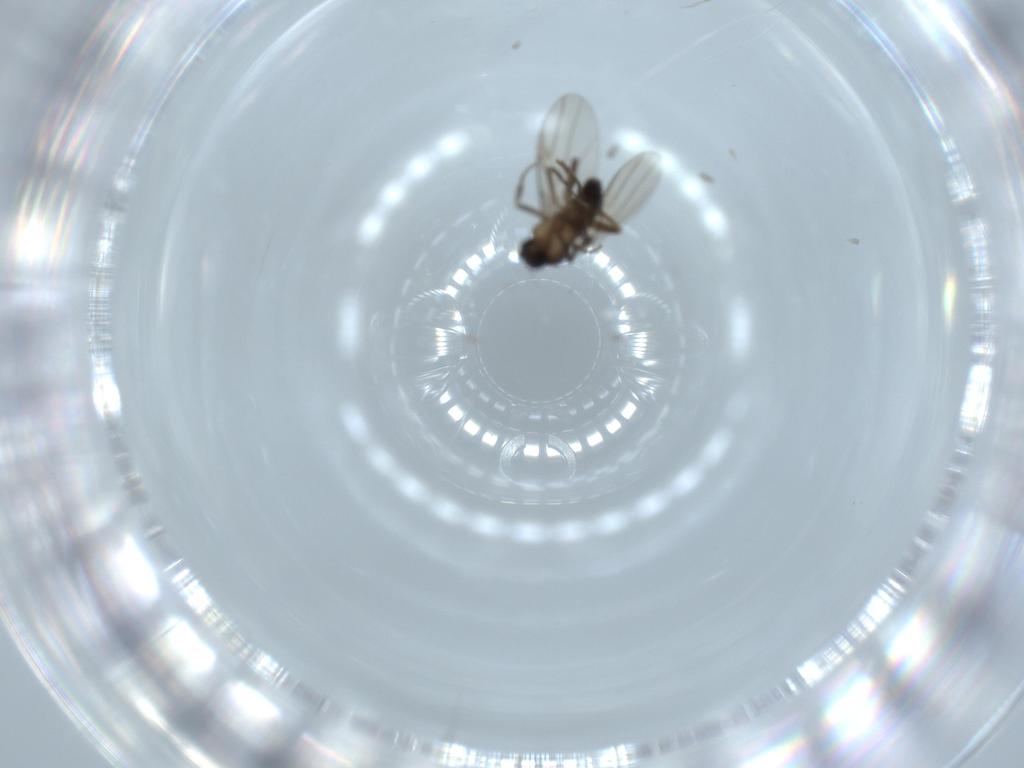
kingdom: Animalia
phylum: Arthropoda
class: Insecta
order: Diptera
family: Phoridae
